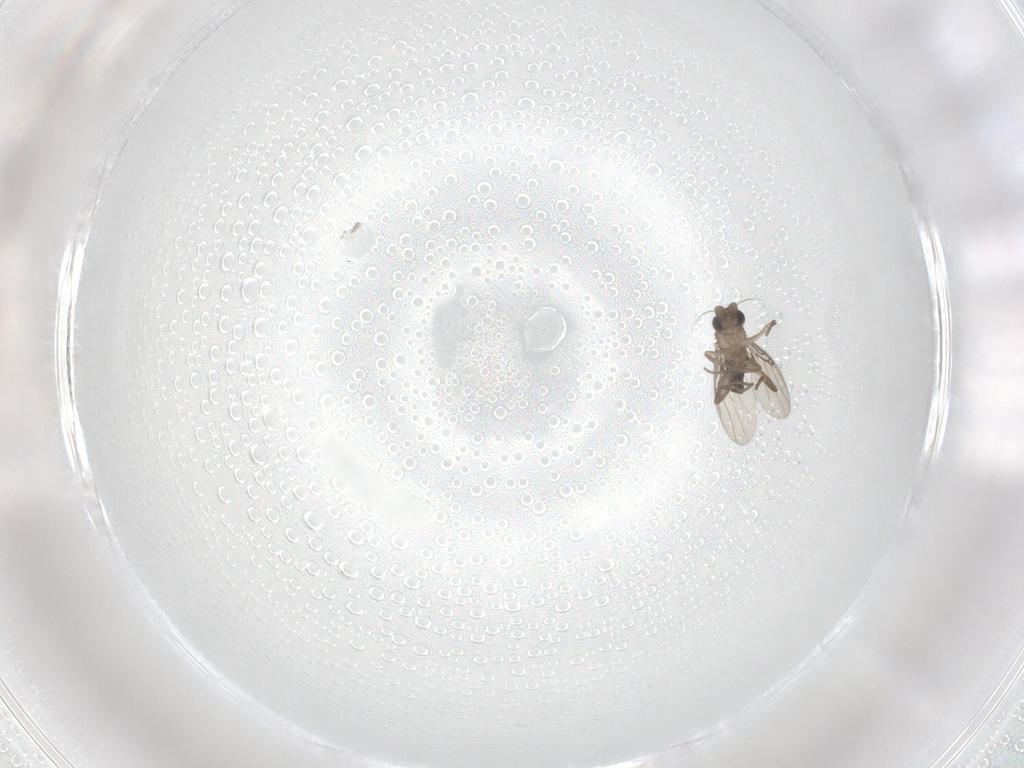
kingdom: Animalia
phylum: Arthropoda
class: Insecta
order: Diptera
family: Phoridae
